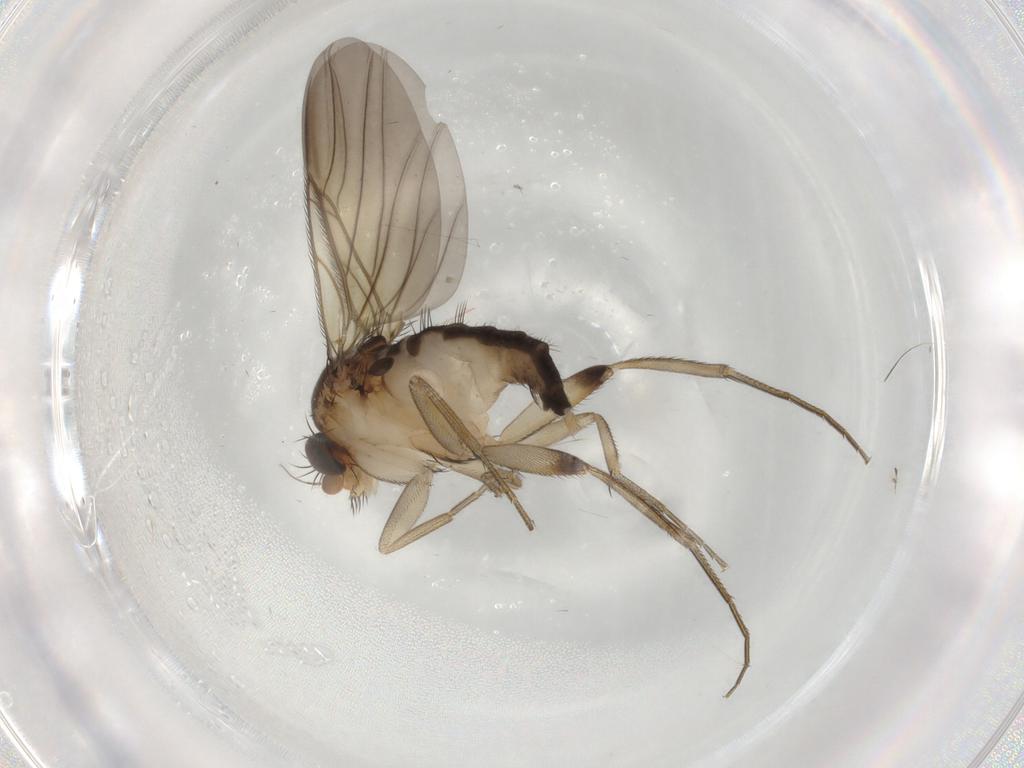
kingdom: Animalia
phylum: Arthropoda
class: Insecta
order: Diptera
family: Phoridae
